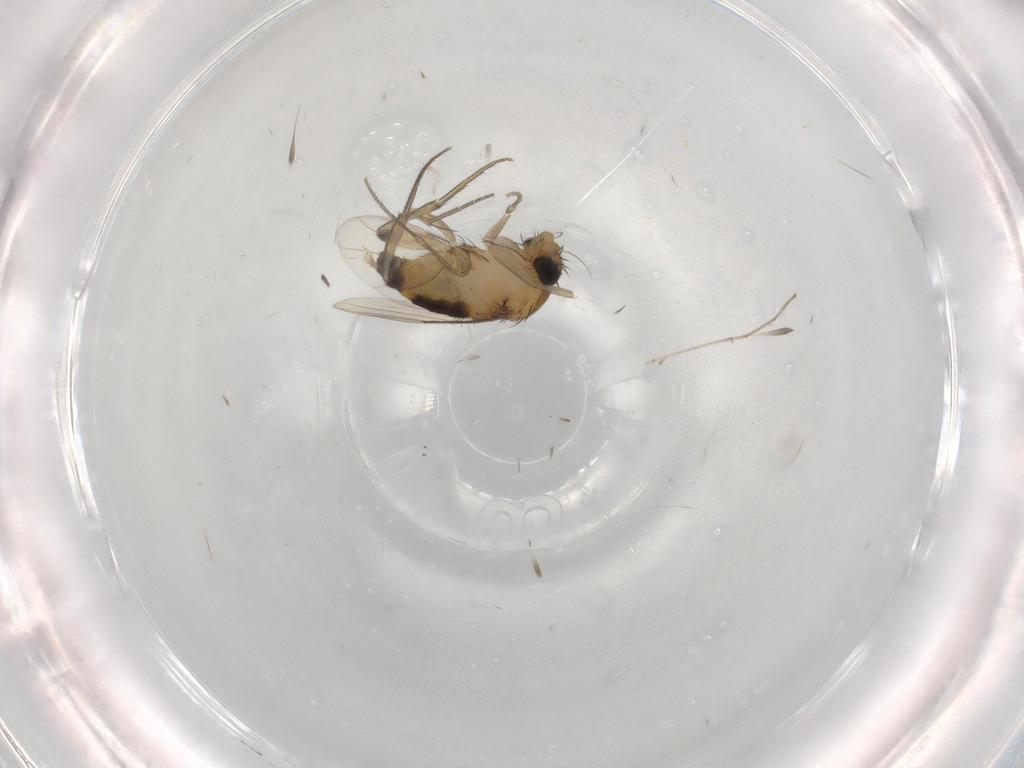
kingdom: Animalia
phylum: Arthropoda
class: Insecta
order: Diptera
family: Phoridae
